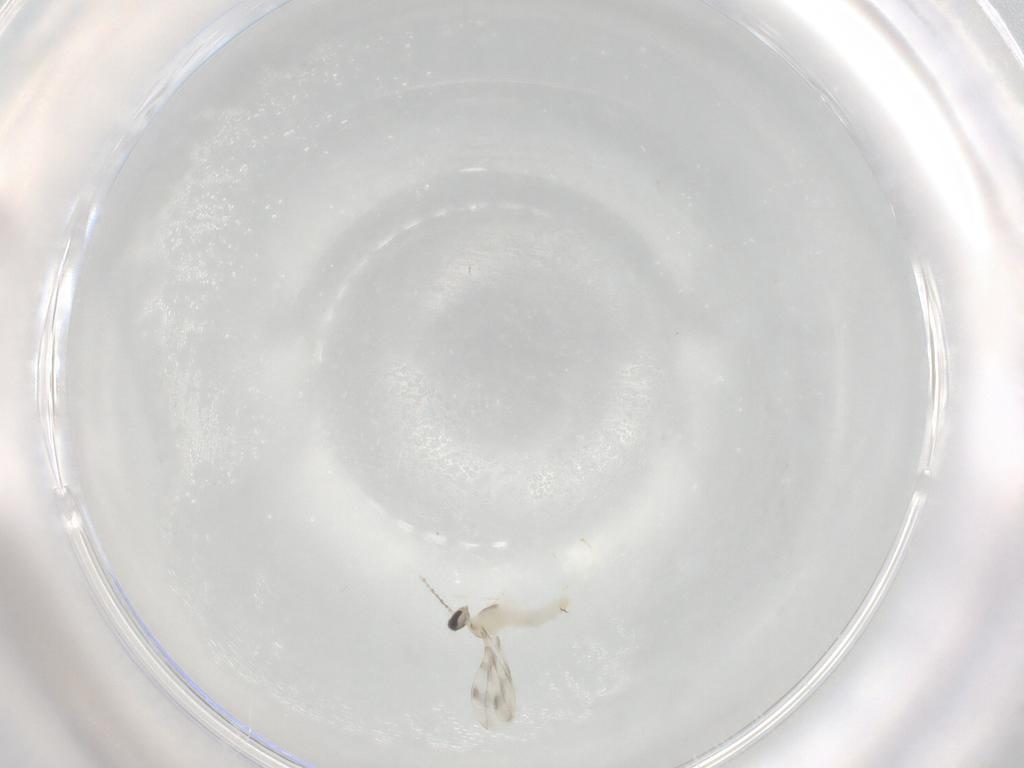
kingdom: Animalia
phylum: Arthropoda
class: Insecta
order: Diptera
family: Cecidomyiidae
